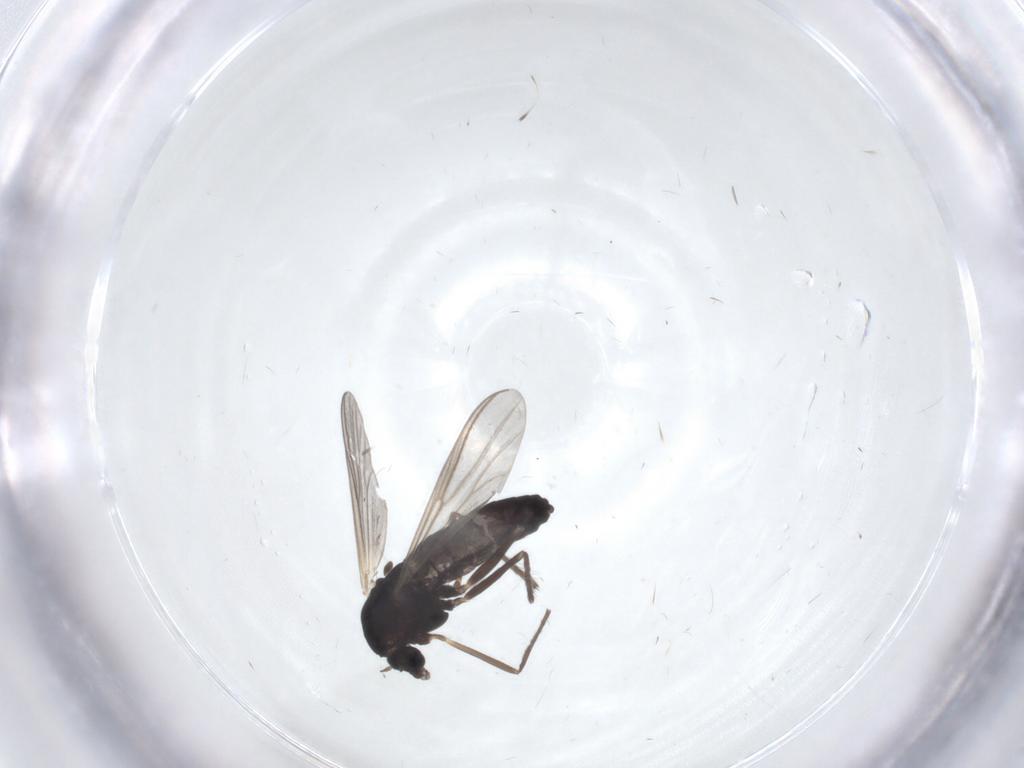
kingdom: Animalia
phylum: Arthropoda
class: Insecta
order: Diptera
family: Chironomidae
